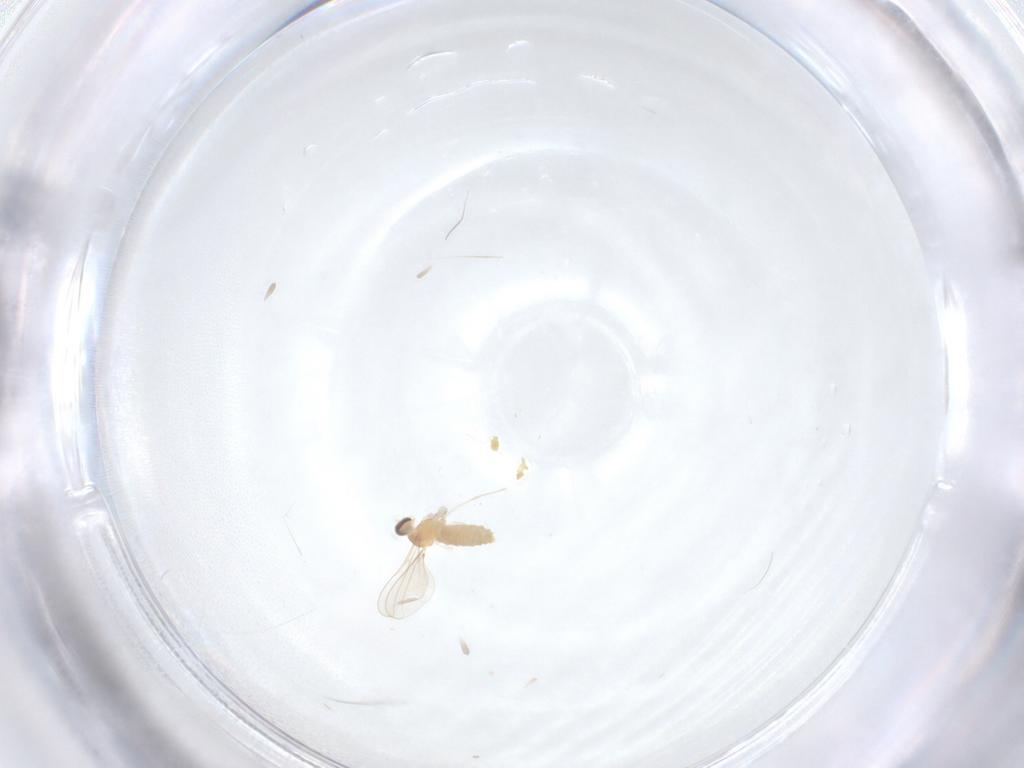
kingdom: Animalia
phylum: Arthropoda
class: Insecta
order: Diptera
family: Cecidomyiidae
